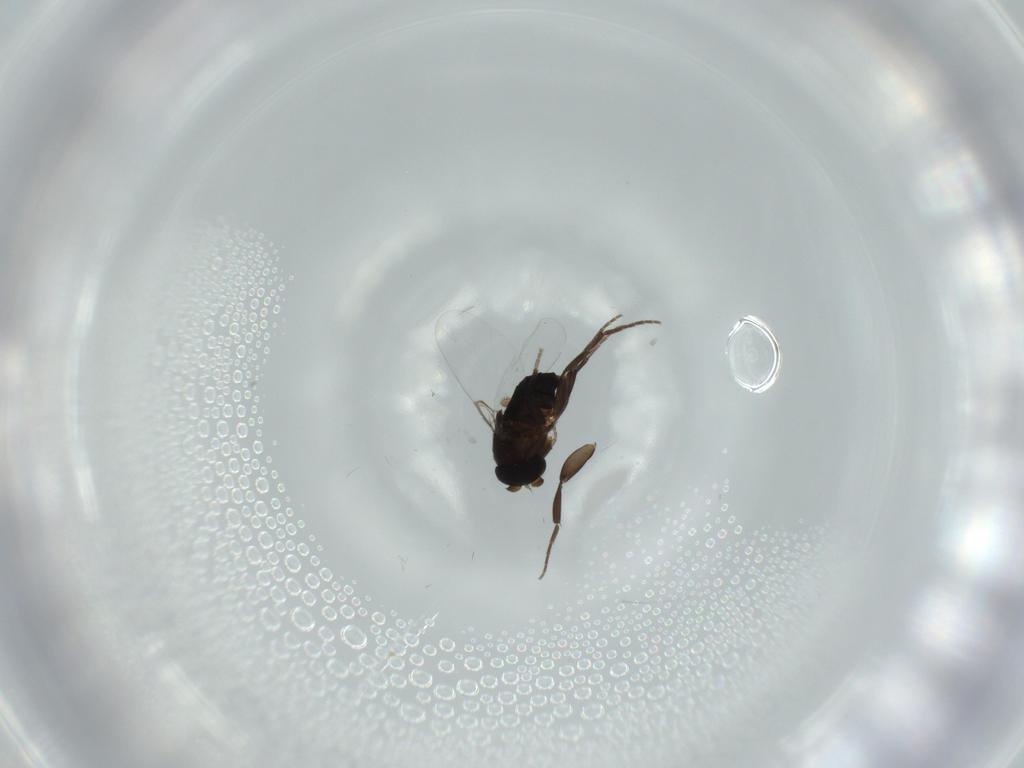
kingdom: Animalia
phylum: Arthropoda
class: Insecta
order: Diptera
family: Phoridae
